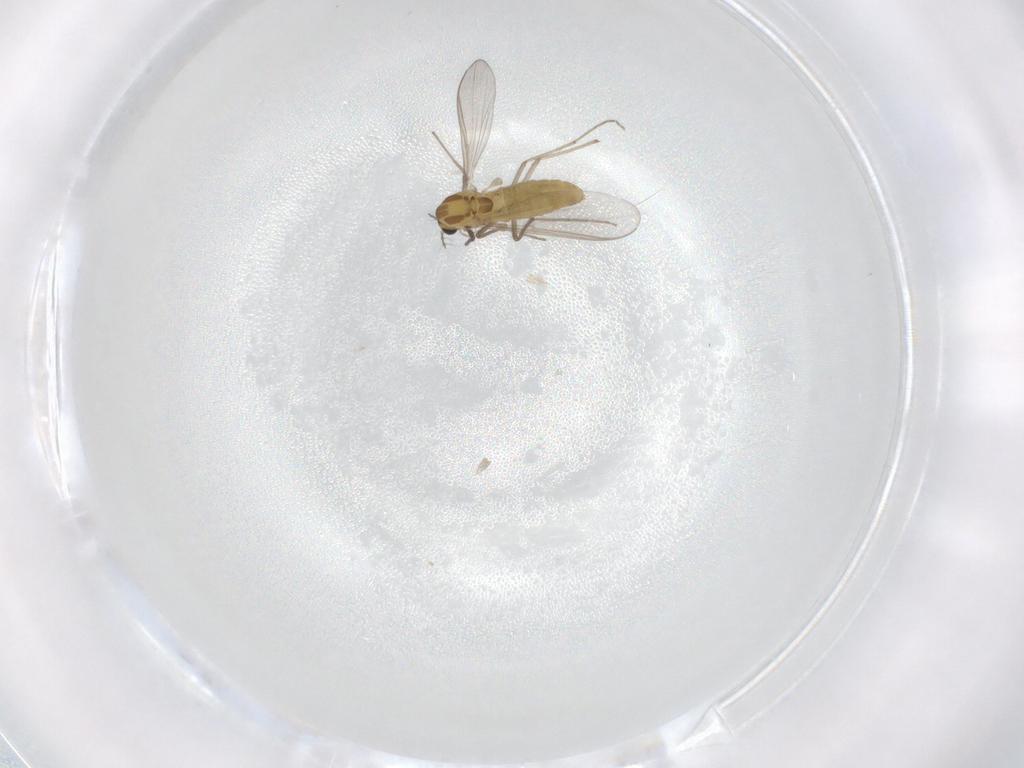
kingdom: Animalia
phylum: Arthropoda
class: Insecta
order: Diptera
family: Chironomidae
